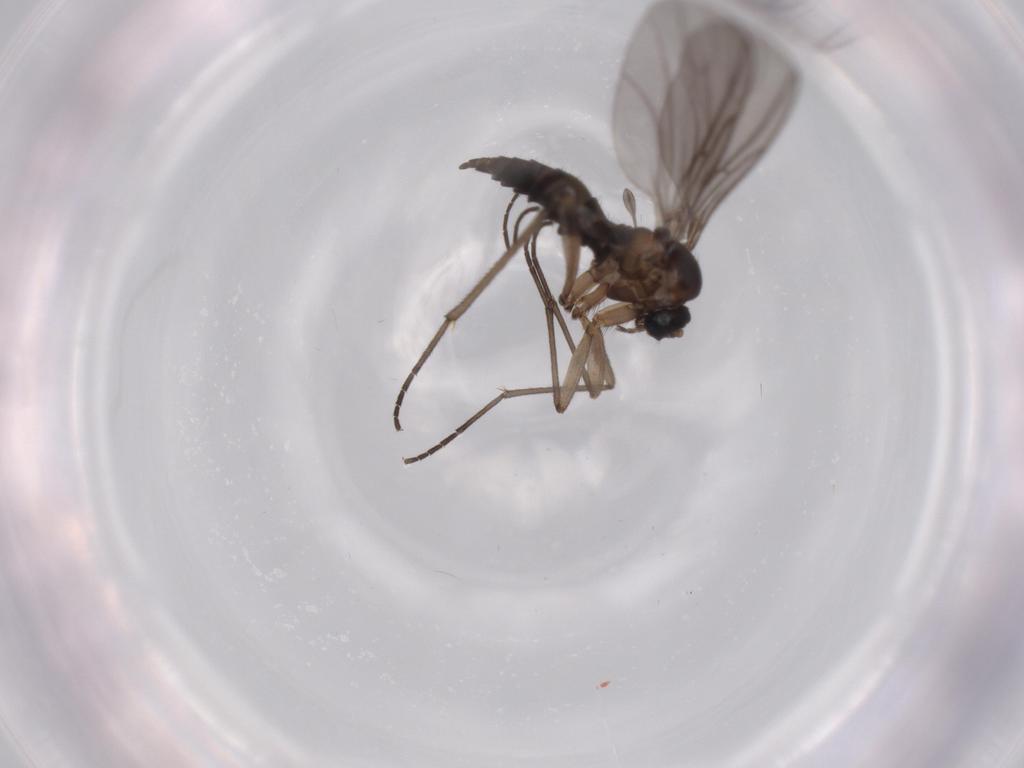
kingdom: Animalia
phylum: Arthropoda
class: Insecta
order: Diptera
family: Sciaridae
